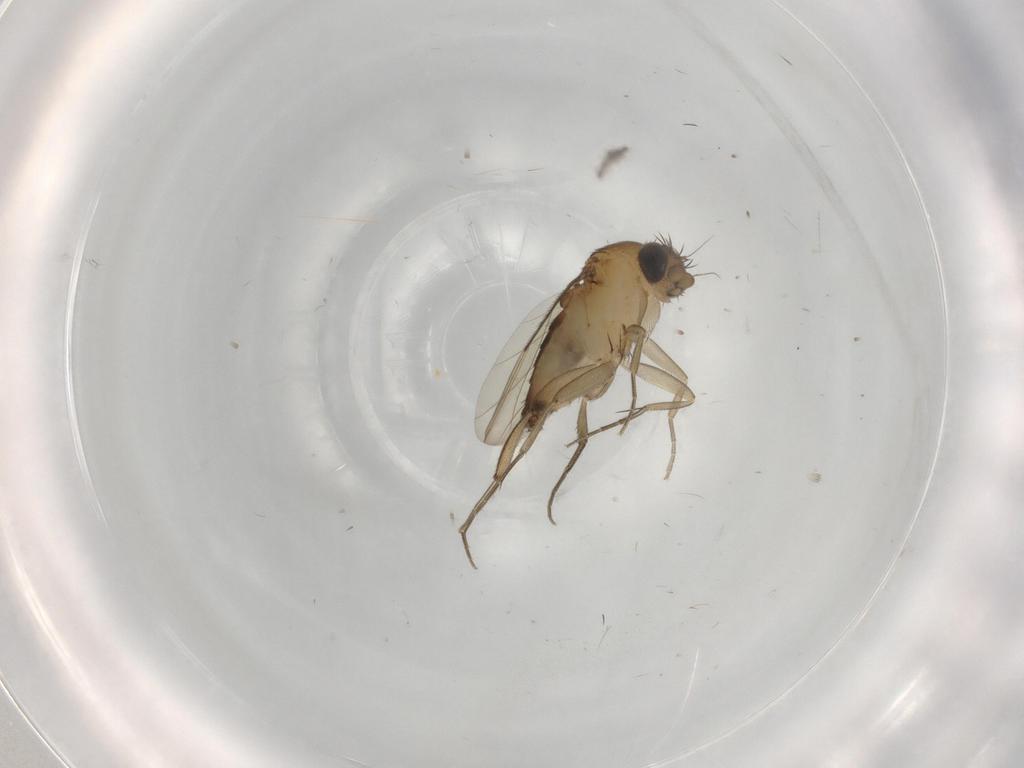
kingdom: Animalia
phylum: Arthropoda
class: Insecta
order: Diptera
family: Phoridae
